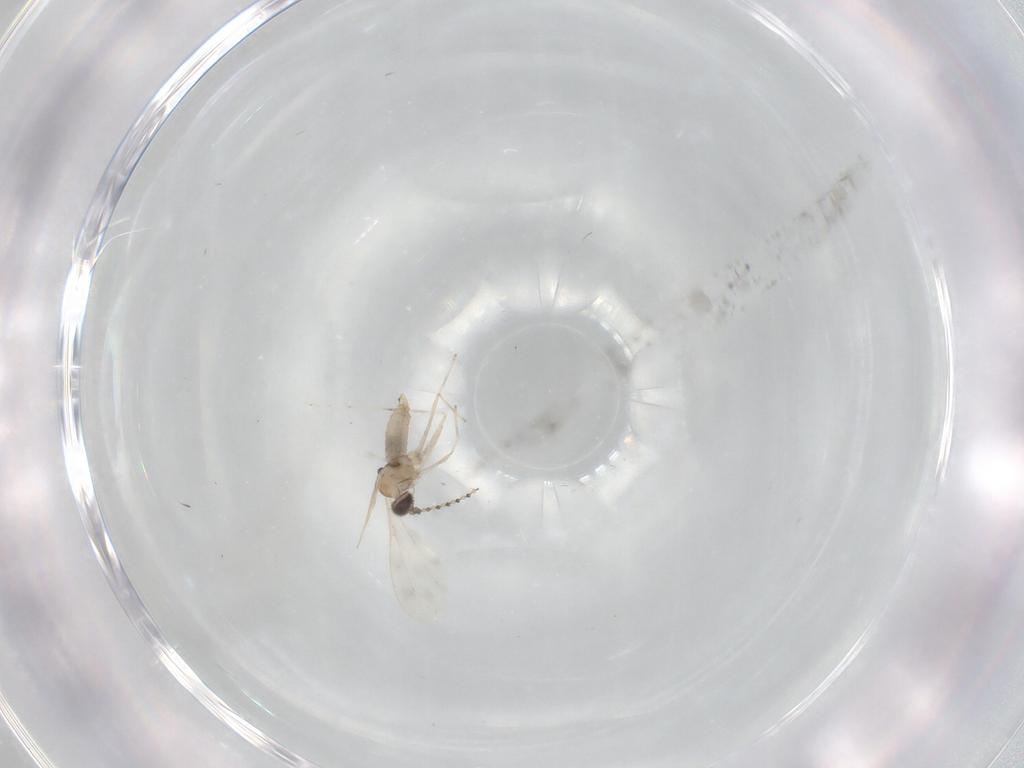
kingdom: Animalia
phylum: Arthropoda
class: Insecta
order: Diptera
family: Cecidomyiidae
